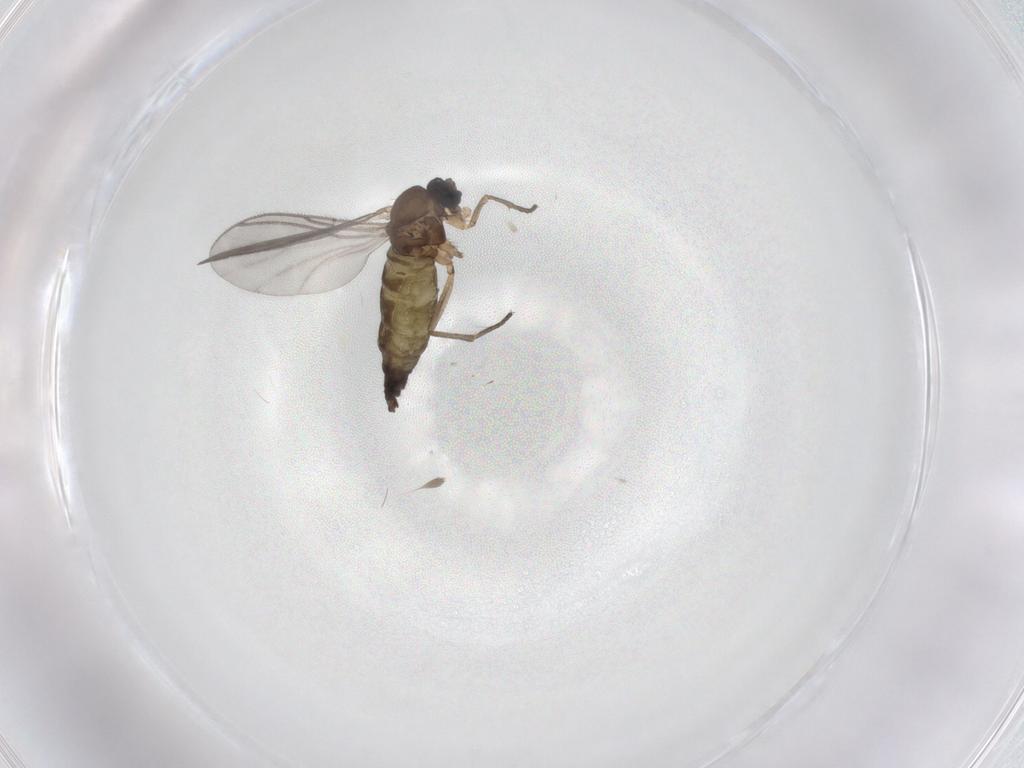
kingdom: Animalia
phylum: Arthropoda
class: Insecta
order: Diptera
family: Sciaridae
